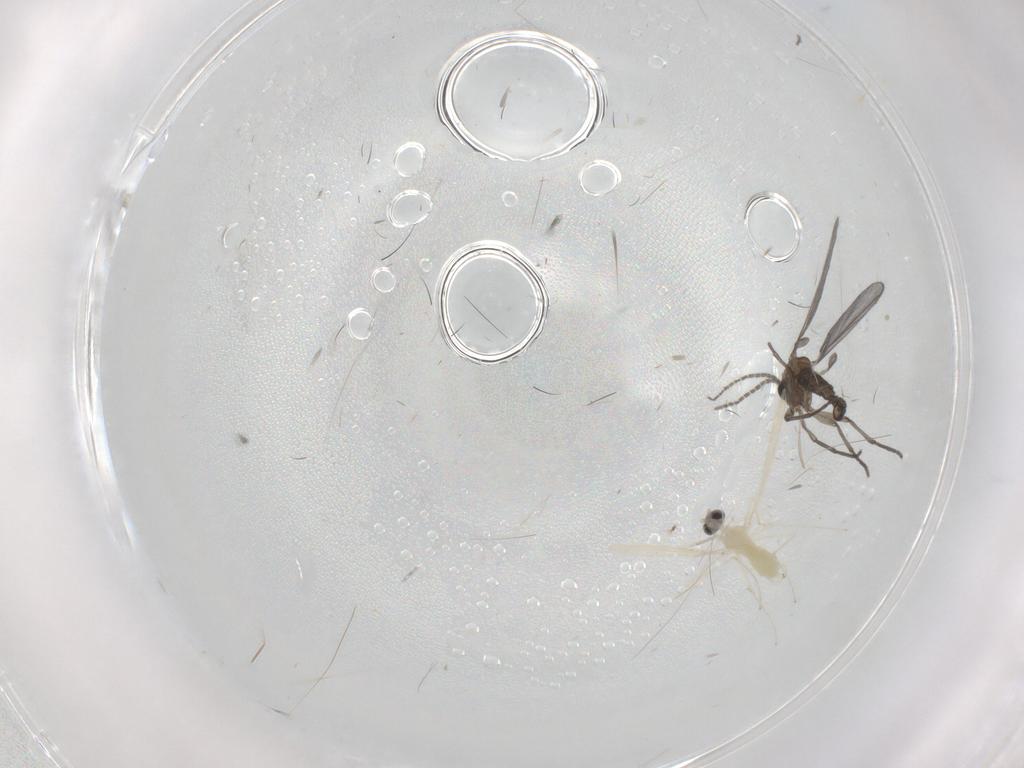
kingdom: Animalia
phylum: Arthropoda
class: Insecta
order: Diptera
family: Sciaridae
